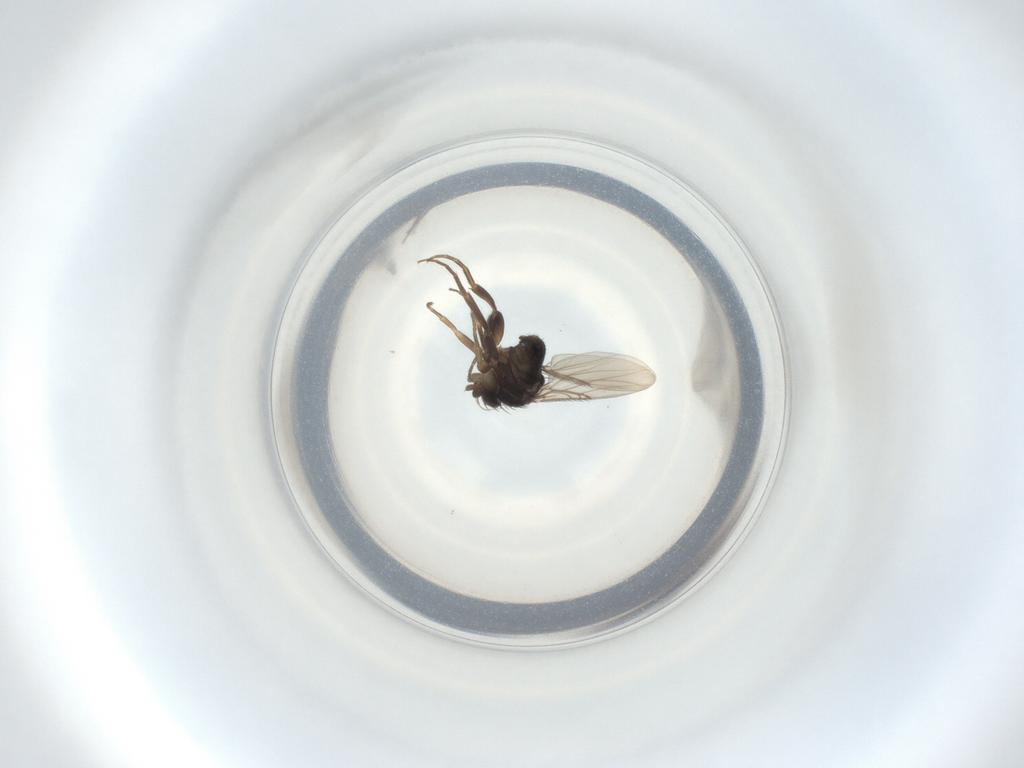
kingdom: Animalia
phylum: Arthropoda
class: Insecta
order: Diptera
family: Phoridae
